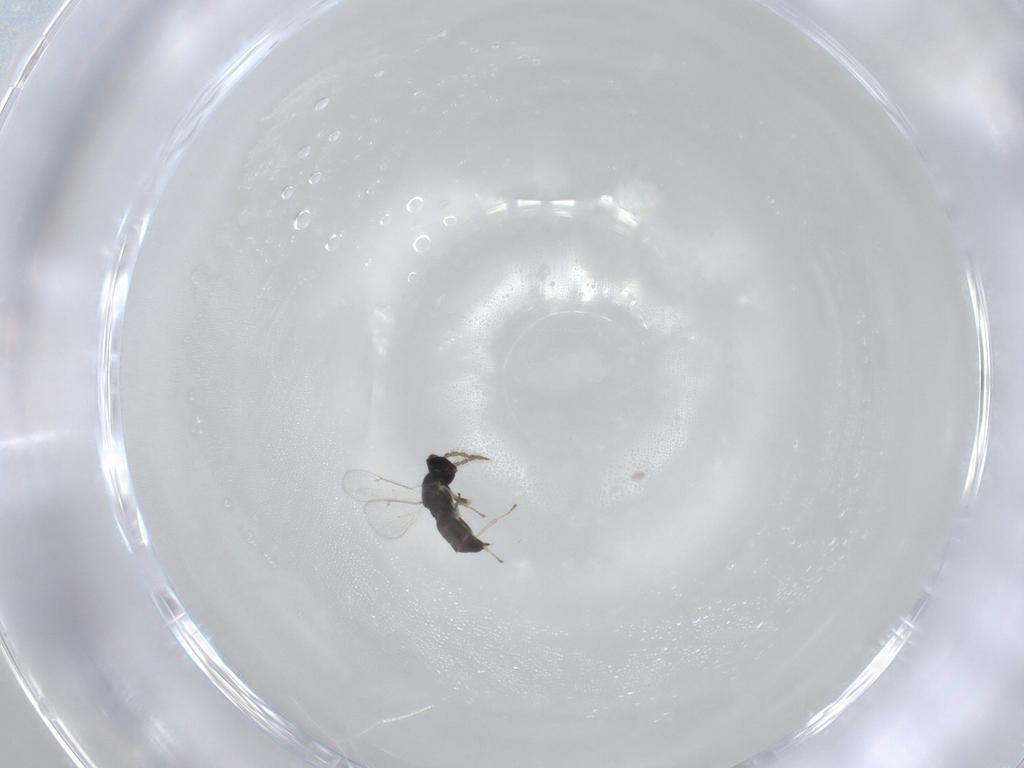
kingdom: Animalia
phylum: Arthropoda
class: Insecta
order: Hymenoptera
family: Eulophidae
